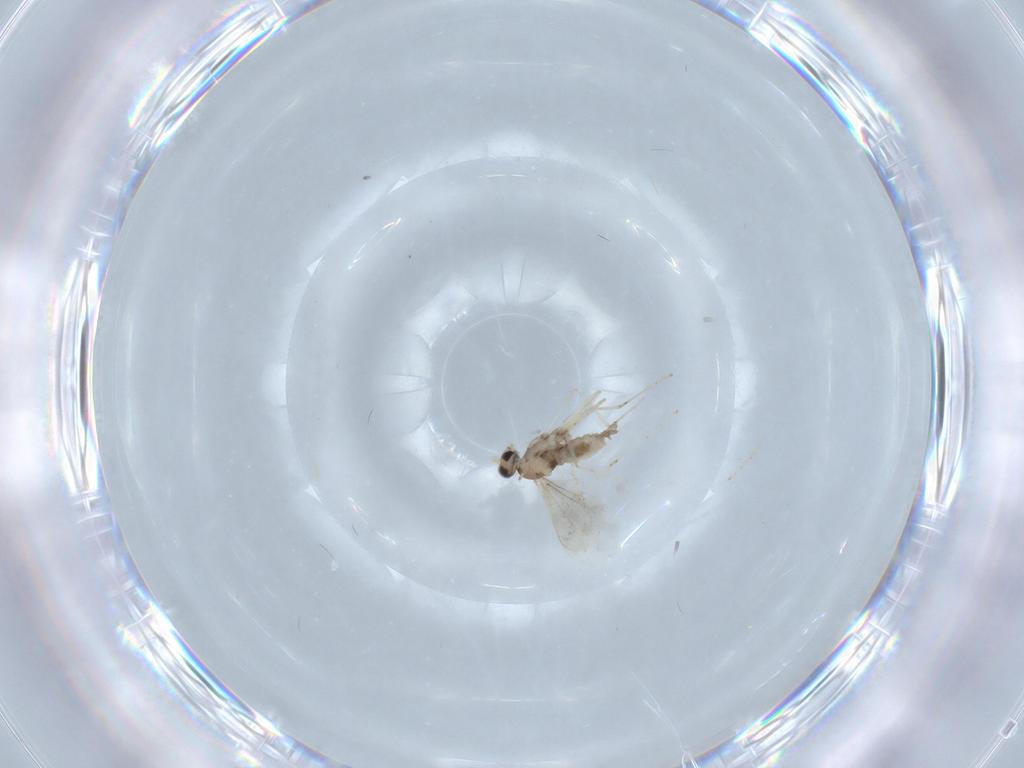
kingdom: Animalia
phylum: Arthropoda
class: Insecta
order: Diptera
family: Cecidomyiidae
